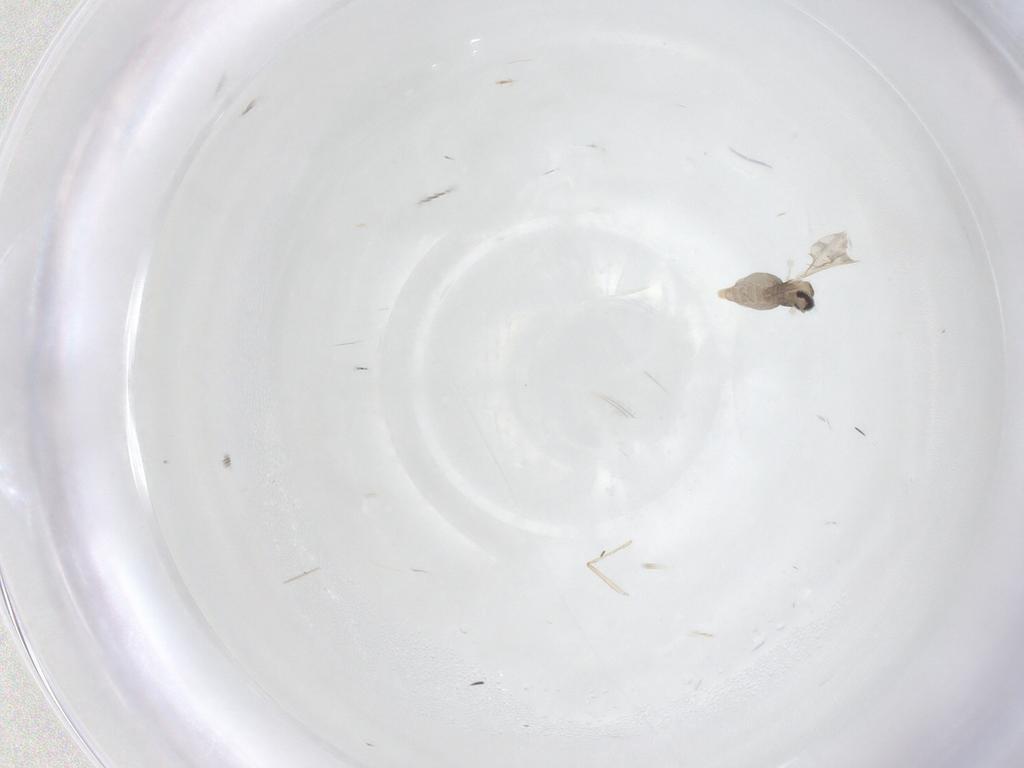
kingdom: Animalia
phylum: Arthropoda
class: Insecta
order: Diptera
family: Cecidomyiidae
